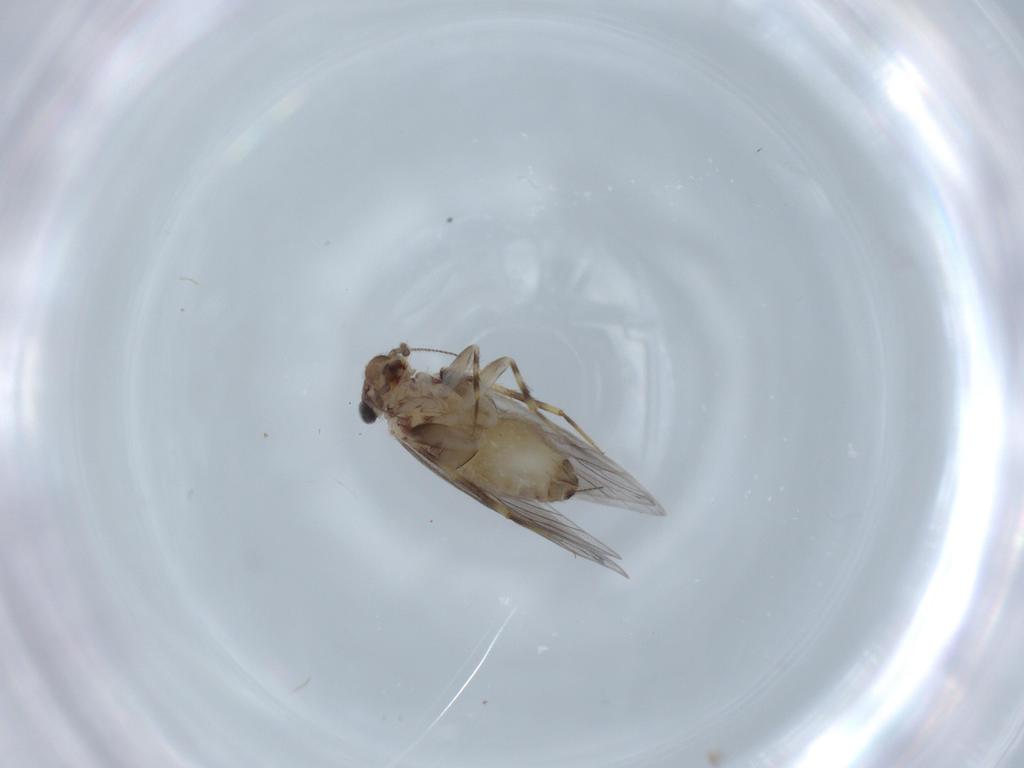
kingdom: Animalia
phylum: Arthropoda
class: Insecta
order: Psocodea
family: Lepidopsocidae
